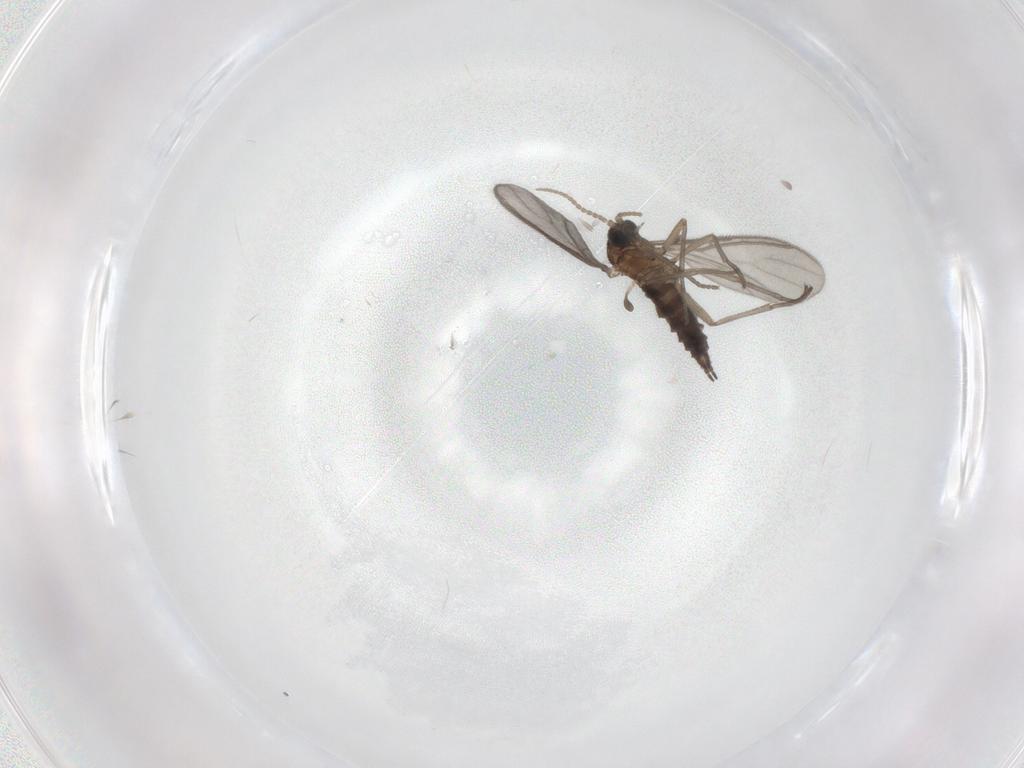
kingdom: Animalia
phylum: Arthropoda
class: Insecta
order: Diptera
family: Sciaridae
